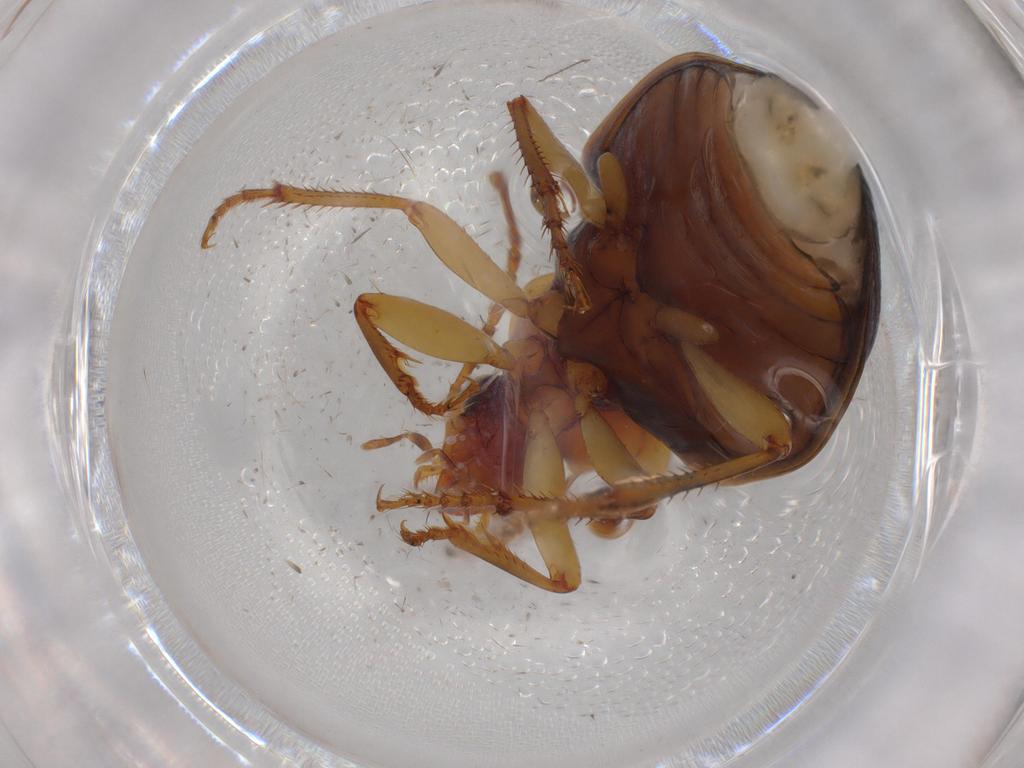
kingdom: Animalia
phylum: Arthropoda
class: Insecta
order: Coleoptera
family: Carabidae
